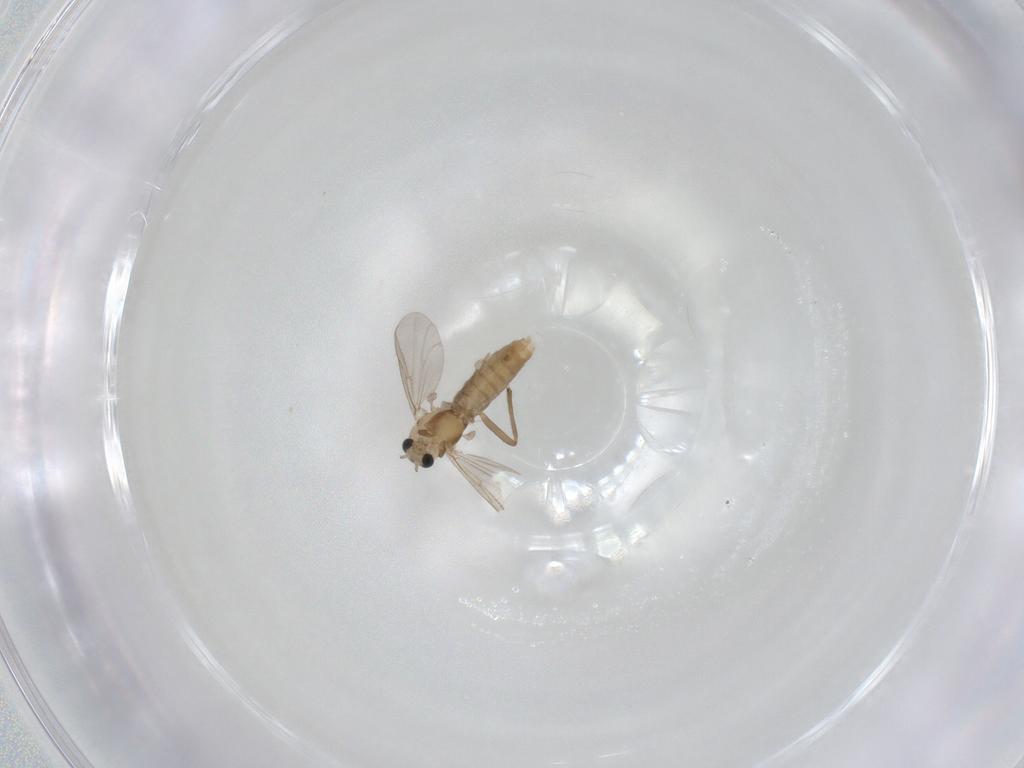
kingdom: Animalia
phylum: Arthropoda
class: Insecta
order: Diptera
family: Chironomidae
